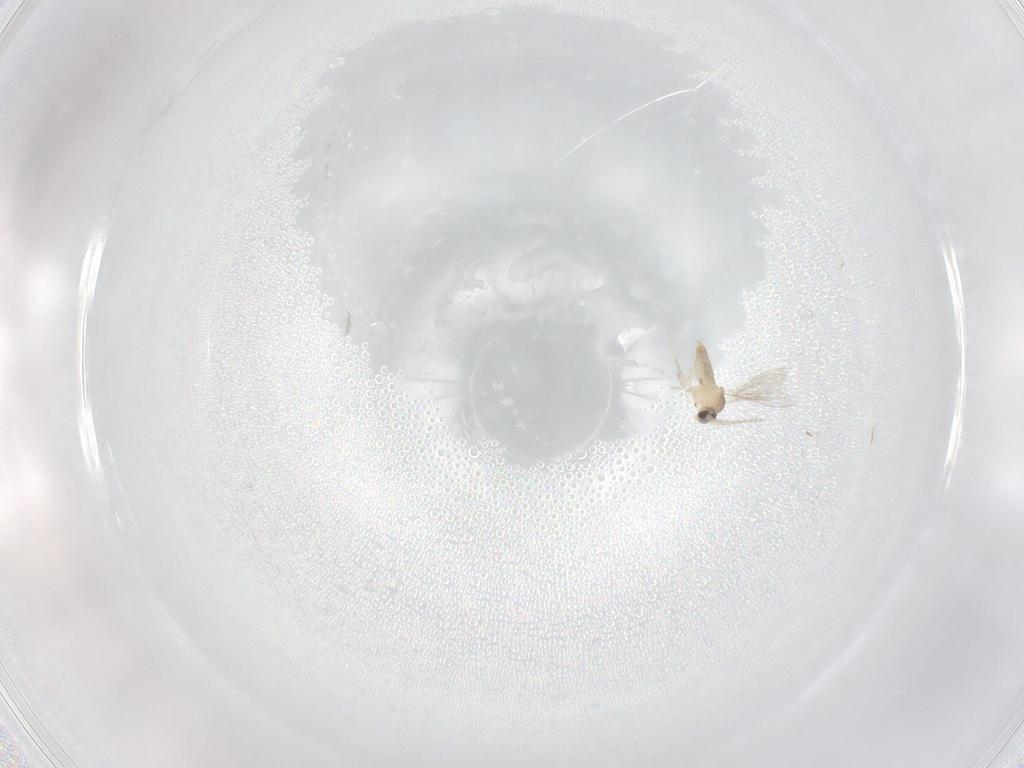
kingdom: Animalia
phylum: Arthropoda
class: Insecta
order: Diptera
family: Cecidomyiidae
